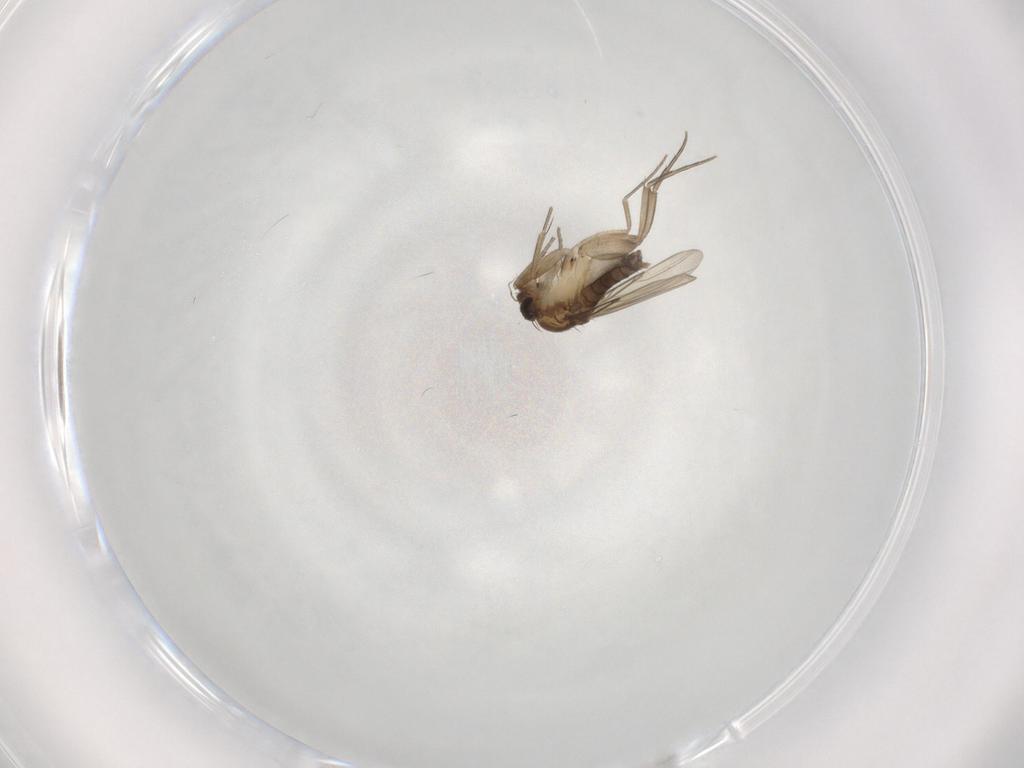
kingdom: Animalia
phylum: Arthropoda
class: Insecta
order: Diptera
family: Phoridae
